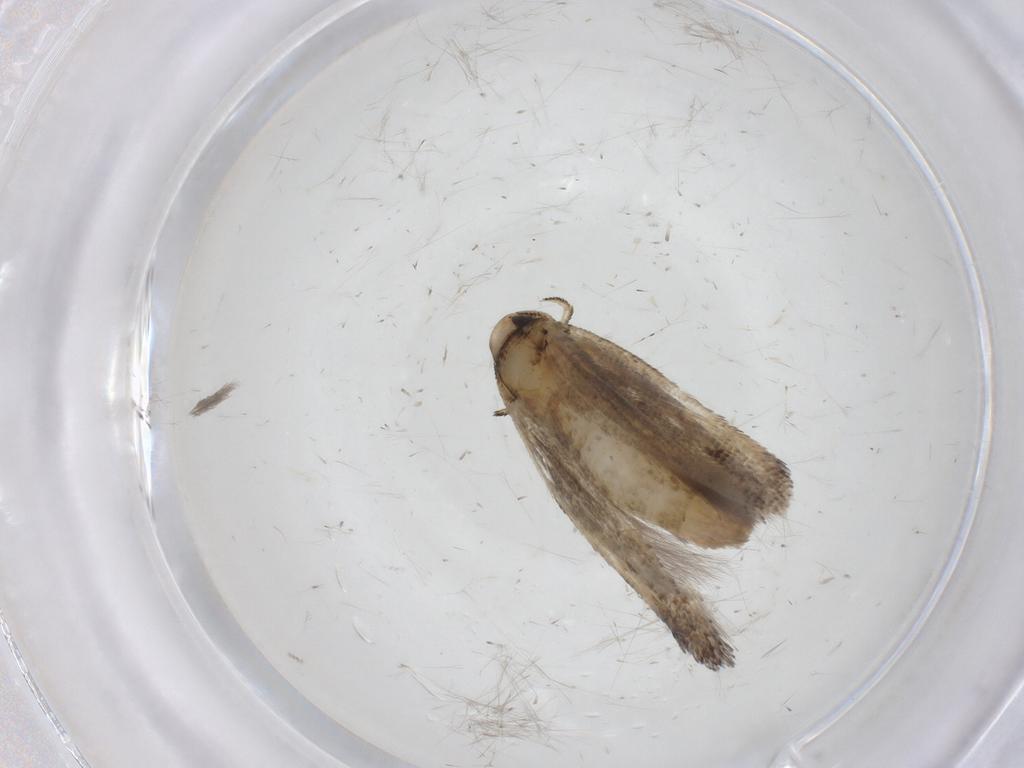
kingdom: Animalia
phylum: Arthropoda
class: Insecta
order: Lepidoptera
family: Gelechiidae
